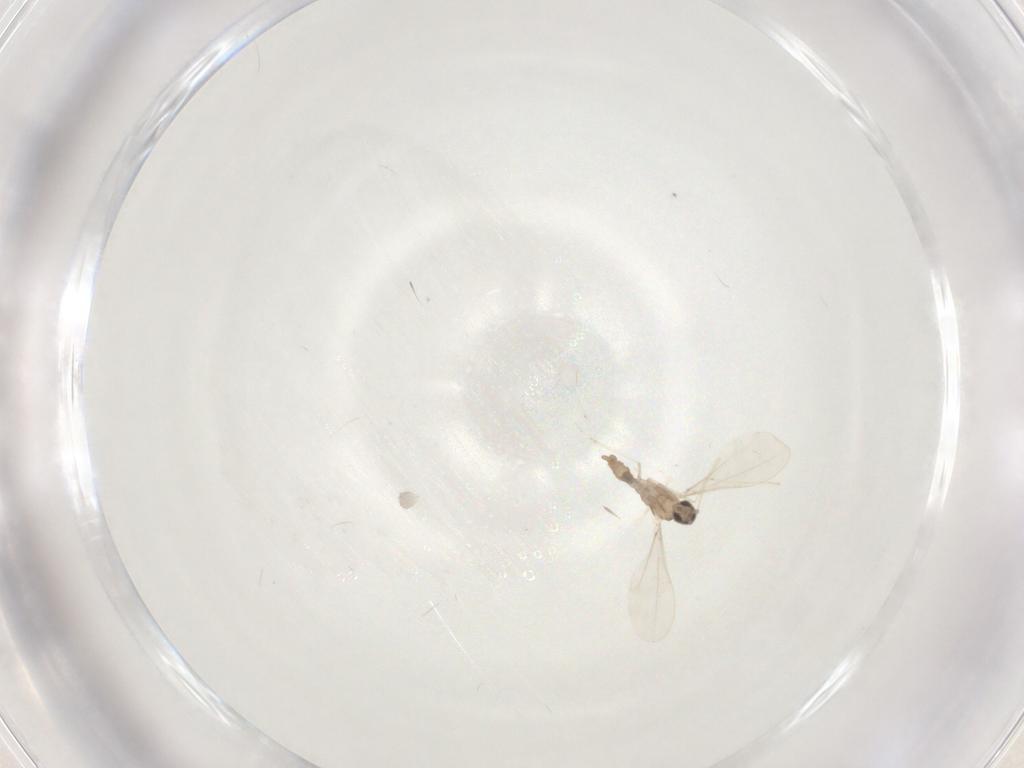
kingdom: Animalia
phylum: Arthropoda
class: Insecta
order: Diptera
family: Cecidomyiidae
